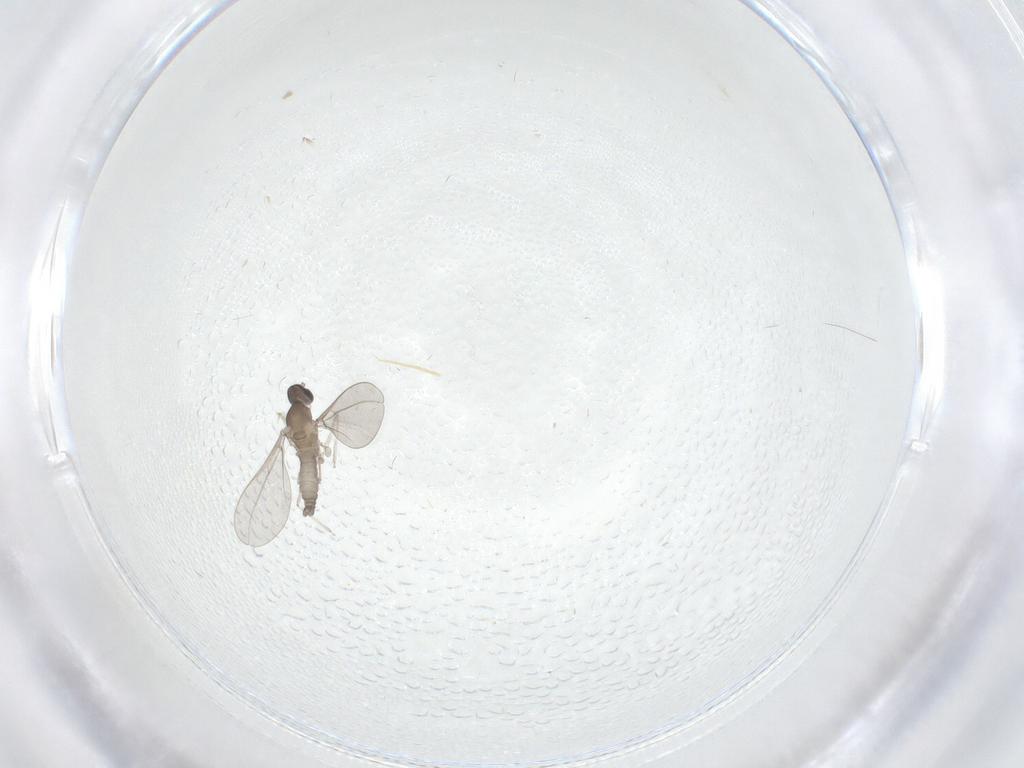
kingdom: Animalia
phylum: Arthropoda
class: Insecta
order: Diptera
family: Cecidomyiidae
